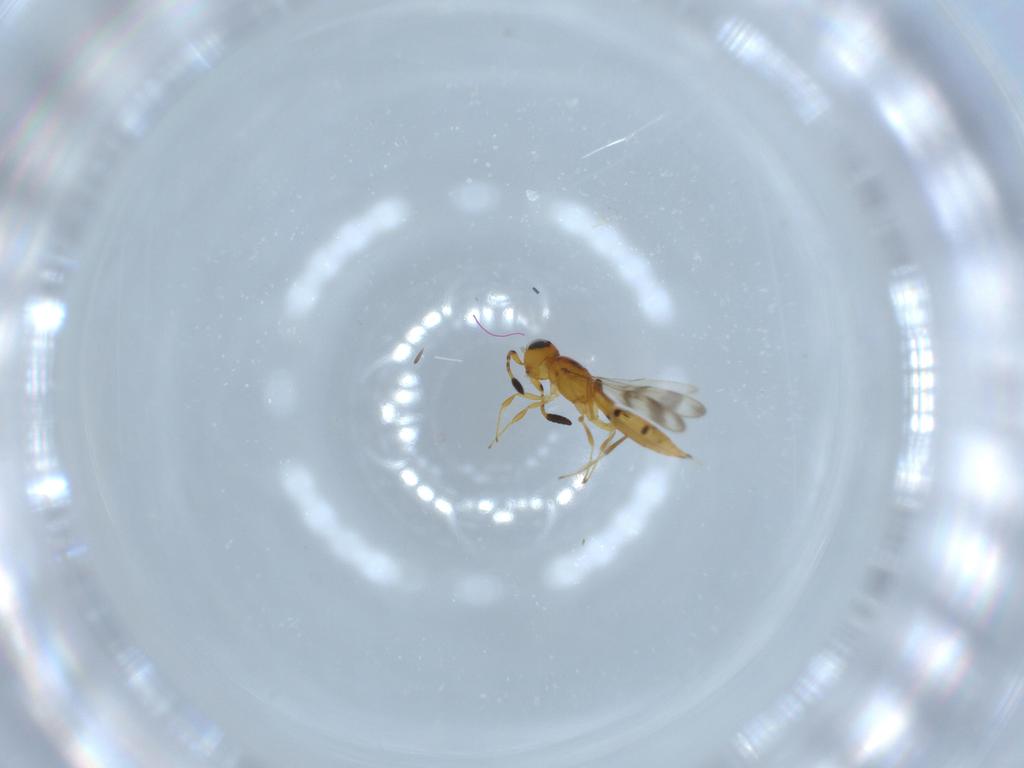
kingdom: Animalia
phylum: Arthropoda
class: Insecta
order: Hymenoptera
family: Scelionidae
